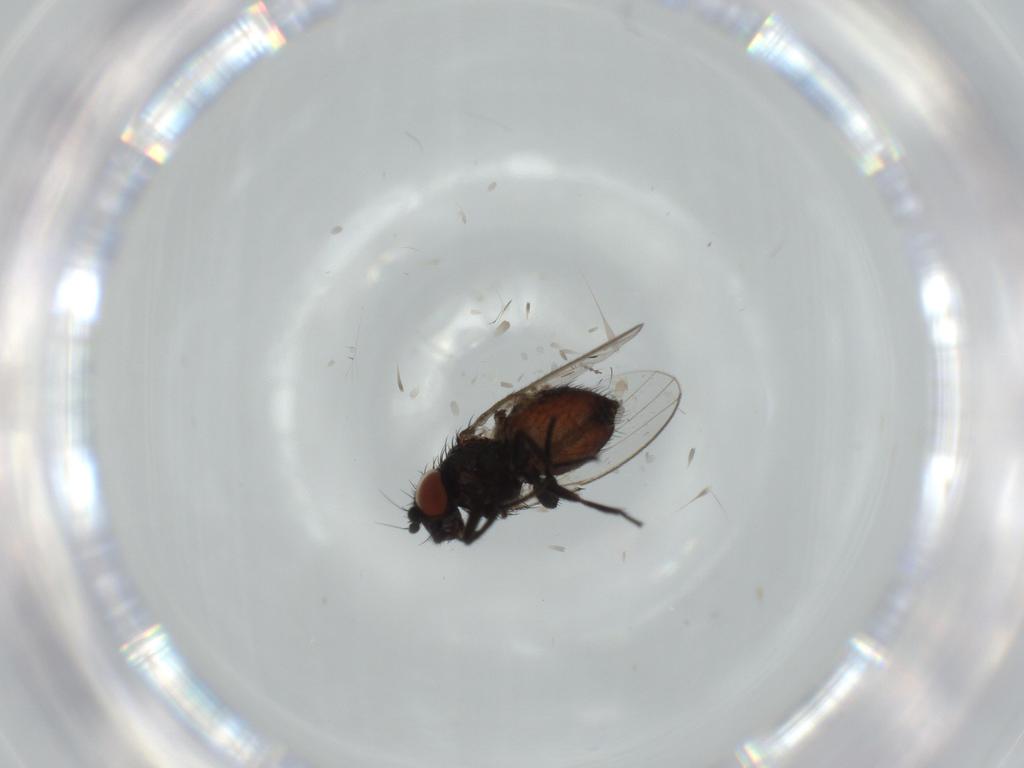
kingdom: Animalia
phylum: Arthropoda
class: Insecta
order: Diptera
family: Milichiidae
